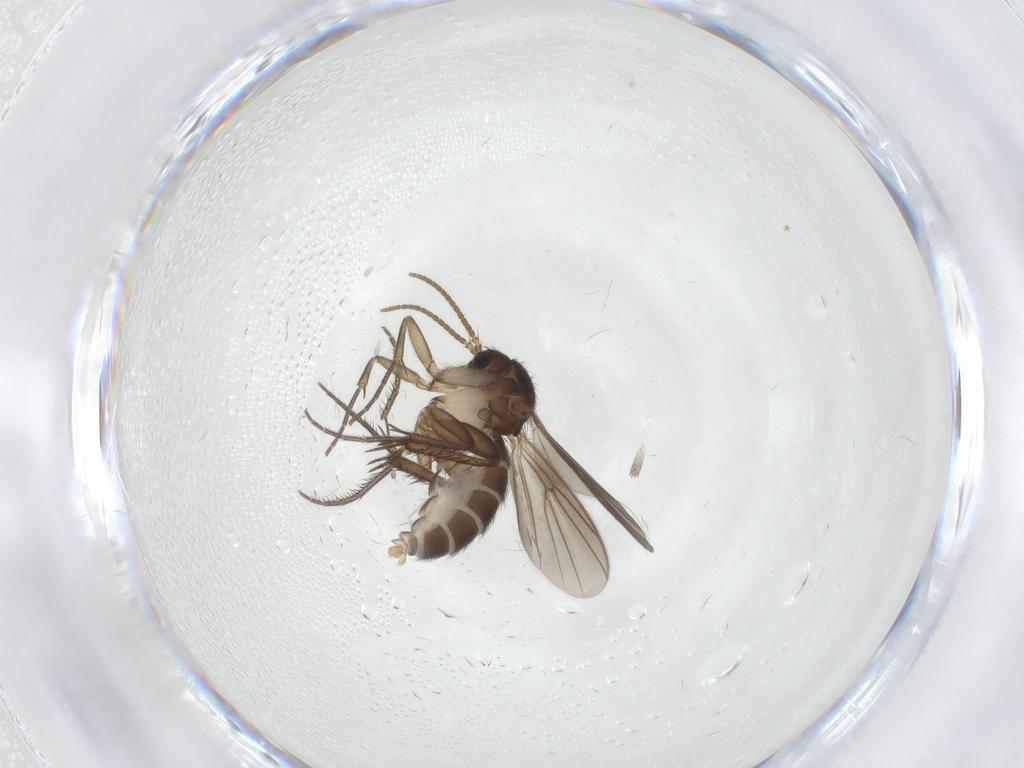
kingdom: Animalia
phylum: Arthropoda
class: Insecta
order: Diptera
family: Mycetophilidae
